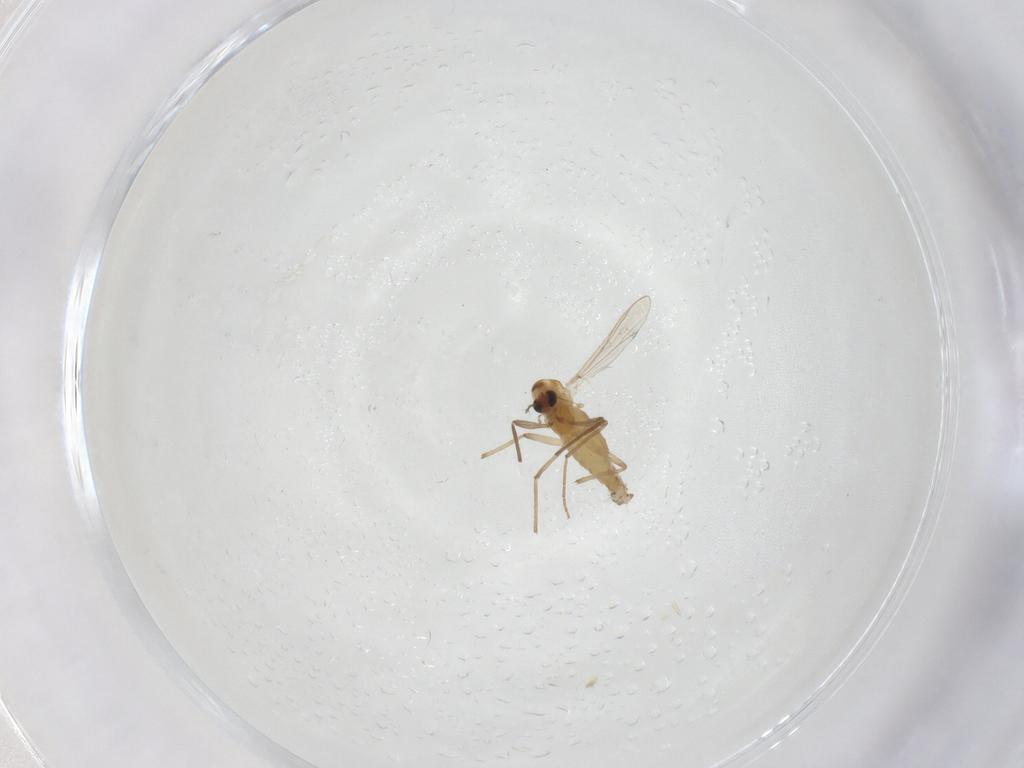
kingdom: Animalia
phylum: Arthropoda
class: Insecta
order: Diptera
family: Chironomidae
